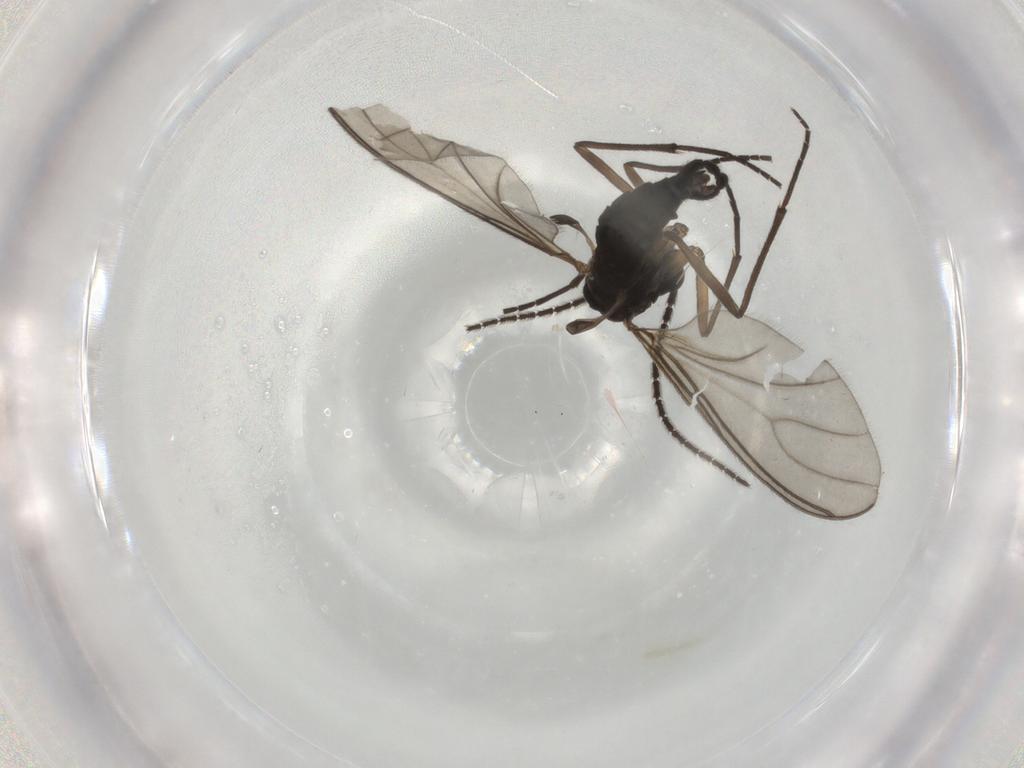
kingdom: Animalia
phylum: Arthropoda
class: Insecta
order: Diptera
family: Sciaridae
